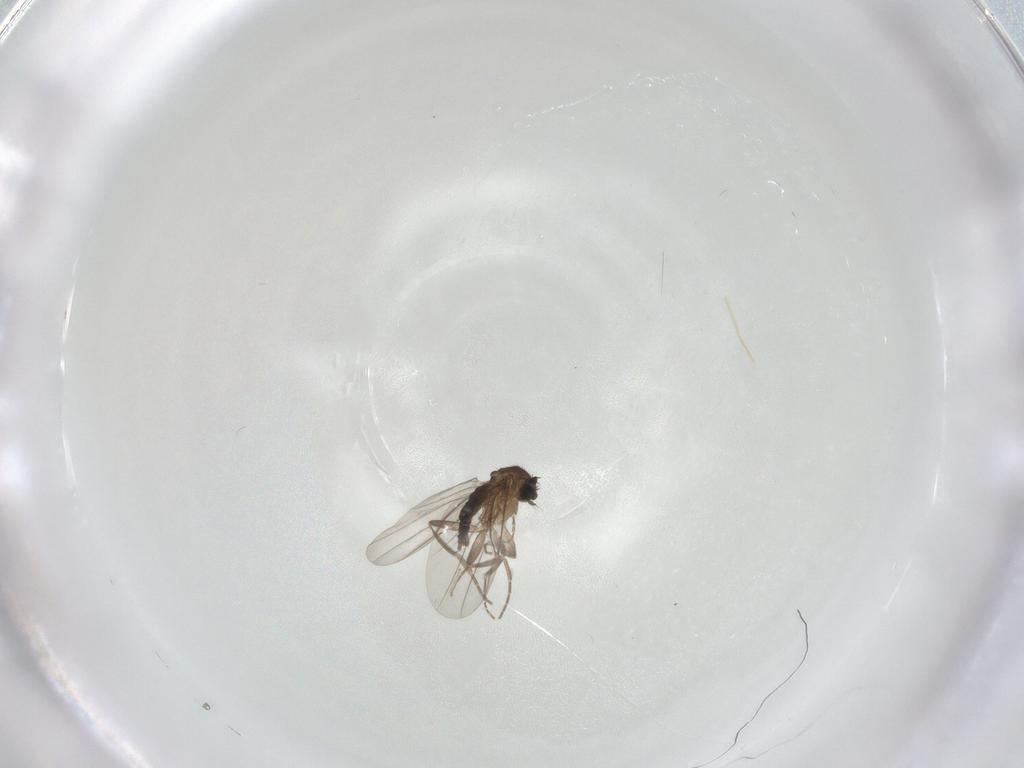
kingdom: Animalia
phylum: Arthropoda
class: Insecta
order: Diptera
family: Phoridae
